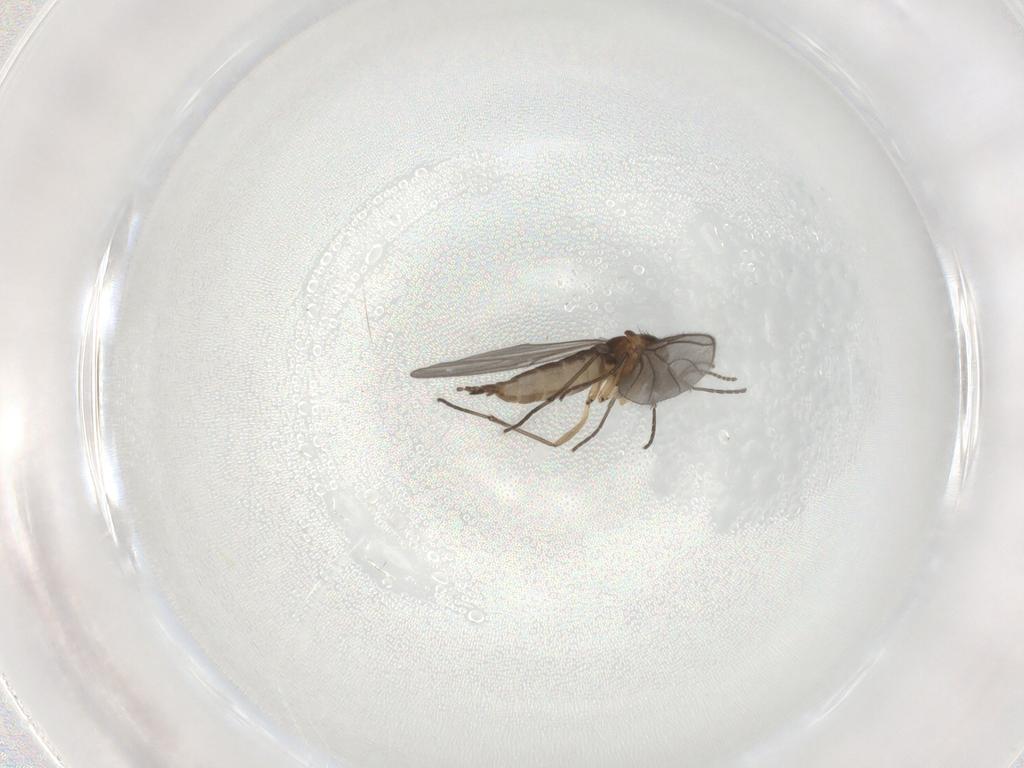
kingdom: Animalia
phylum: Arthropoda
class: Insecta
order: Diptera
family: Sciaridae
